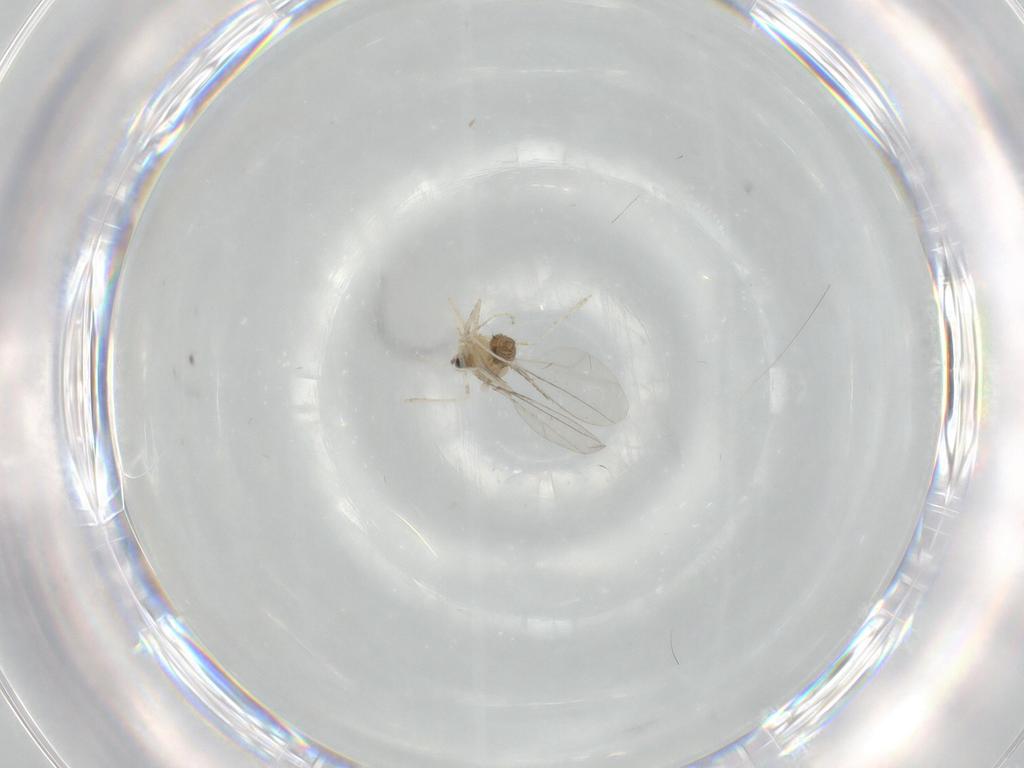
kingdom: Animalia
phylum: Arthropoda
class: Insecta
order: Diptera
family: Cecidomyiidae
